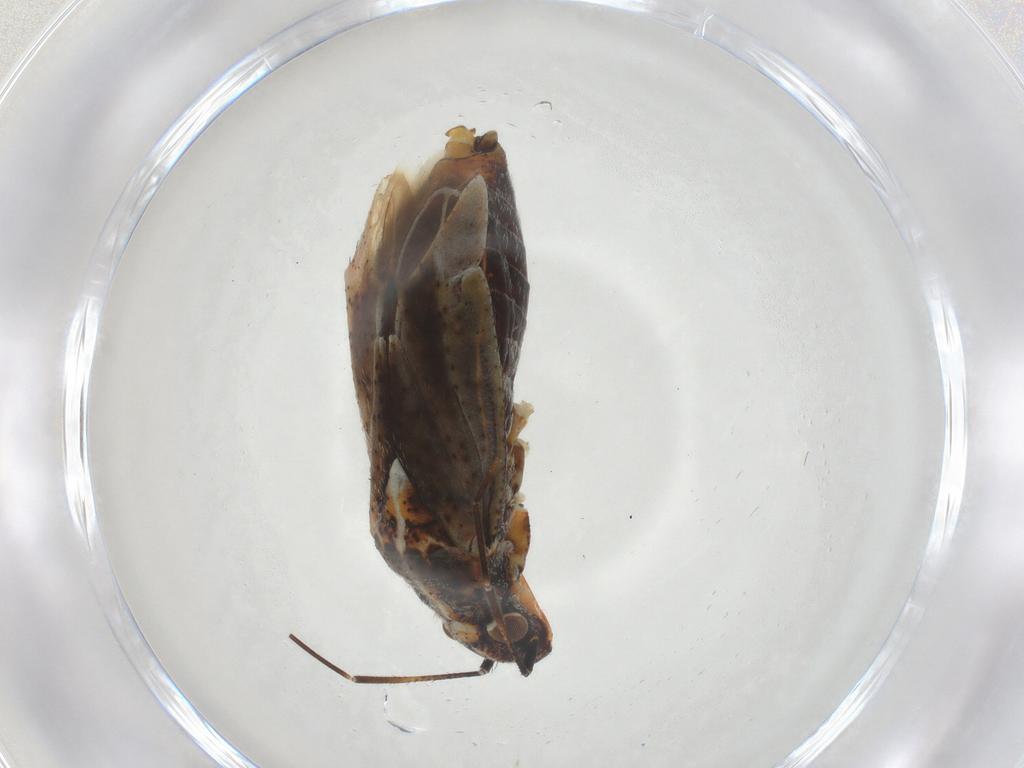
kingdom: Animalia
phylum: Arthropoda
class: Insecta
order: Hemiptera
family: Miridae
